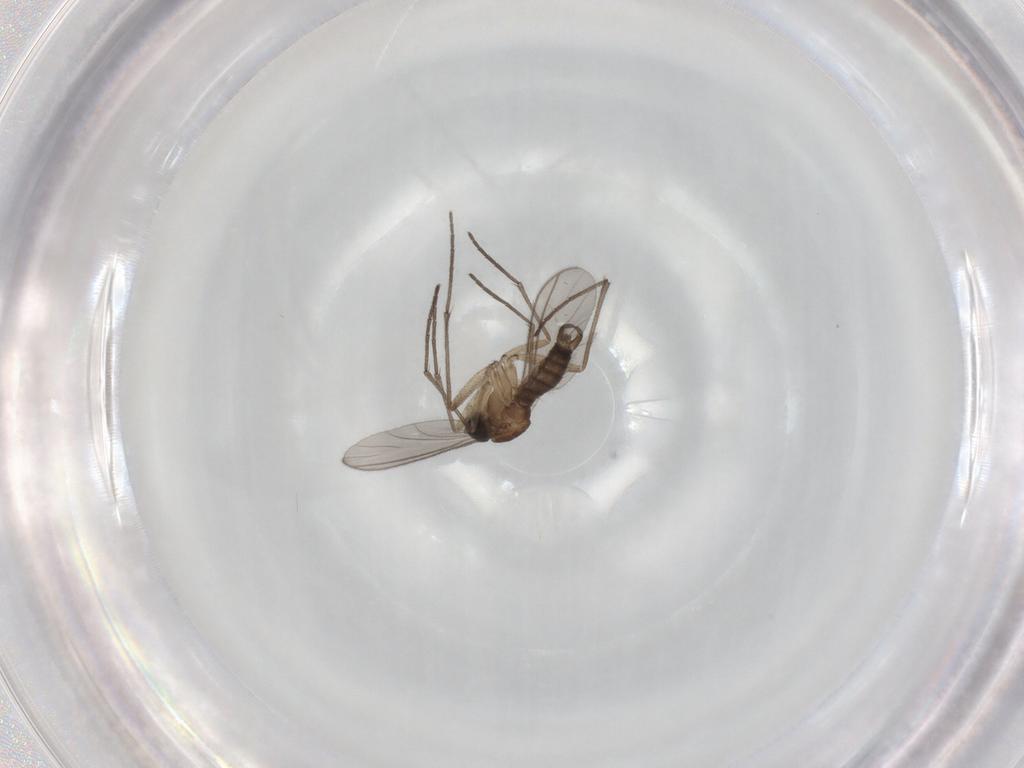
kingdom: Animalia
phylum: Arthropoda
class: Insecta
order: Diptera
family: Sciaridae
